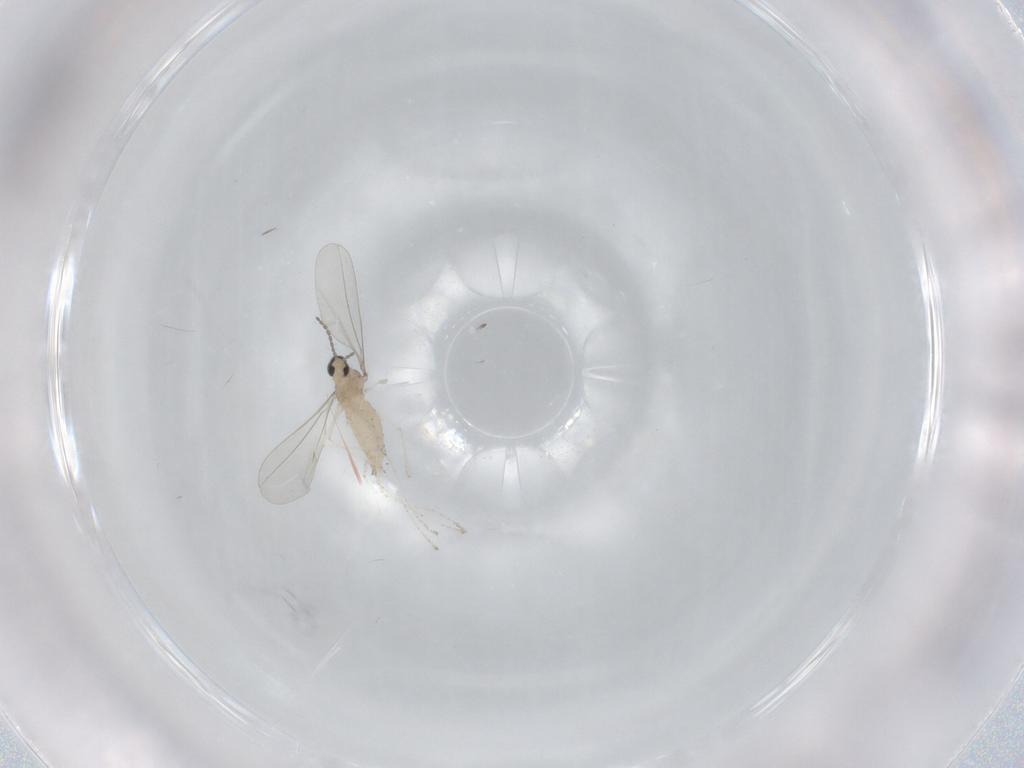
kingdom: Animalia
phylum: Arthropoda
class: Insecta
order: Diptera
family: Cecidomyiidae
